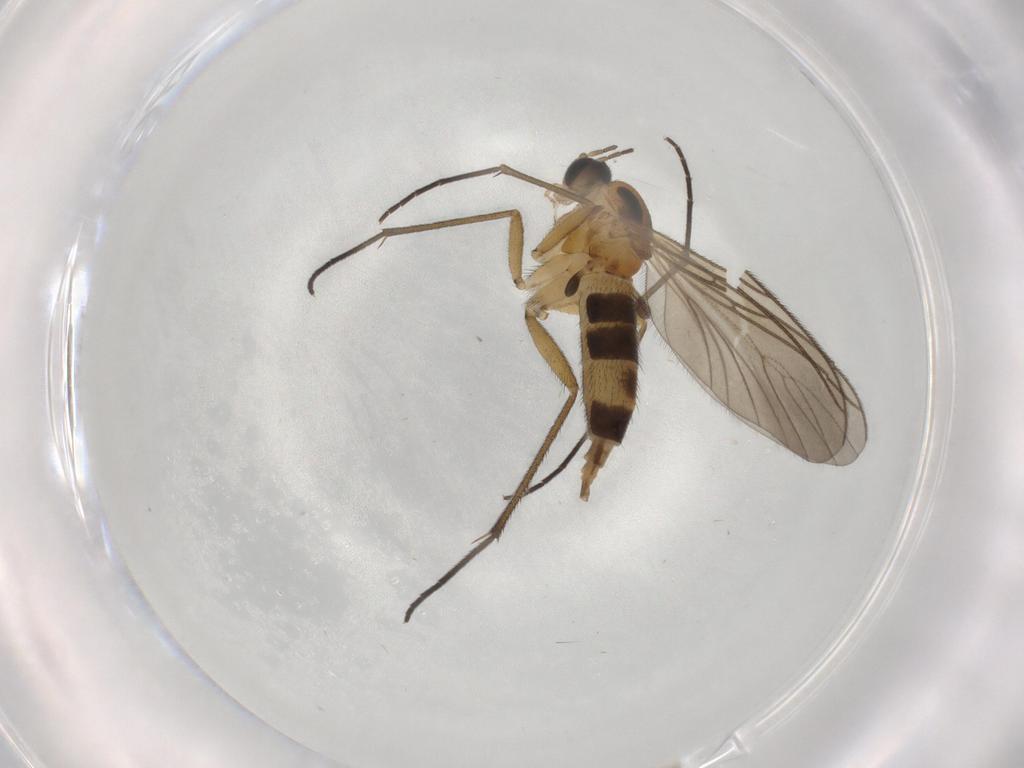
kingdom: Animalia
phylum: Arthropoda
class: Insecta
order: Diptera
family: Sciaridae
